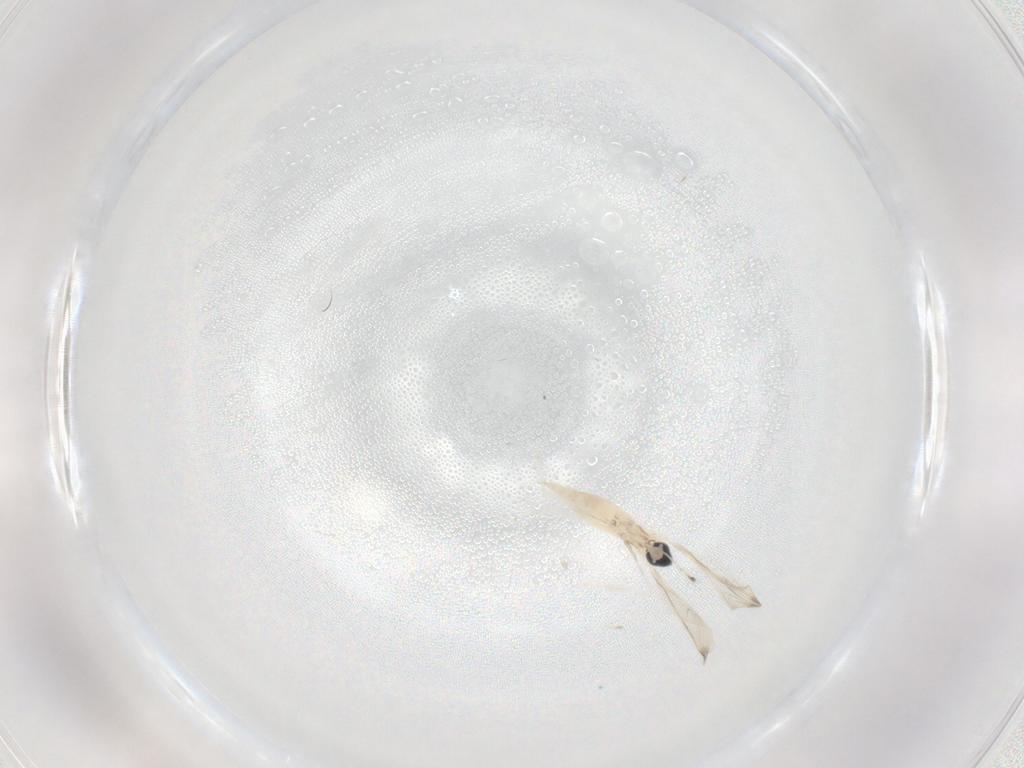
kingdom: Animalia
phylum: Arthropoda
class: Insecta
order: Diptera
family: Cecidomyiidae
